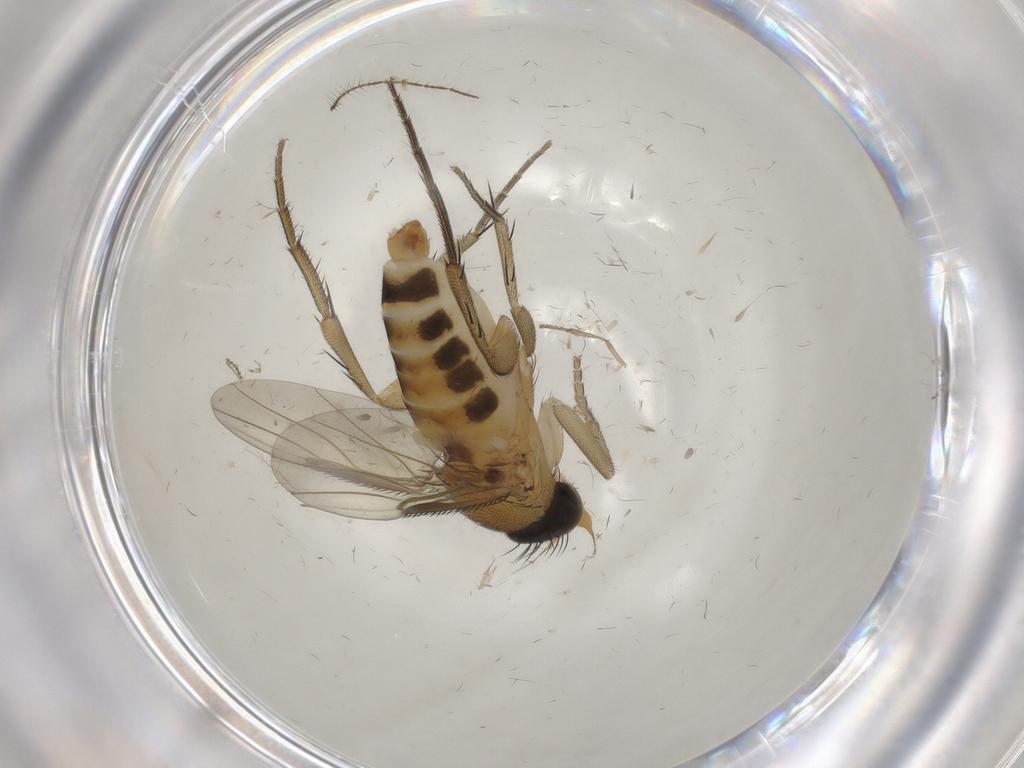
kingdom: Animalia
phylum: Arthropoda
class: Insecta
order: Diptera
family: Phoridae
